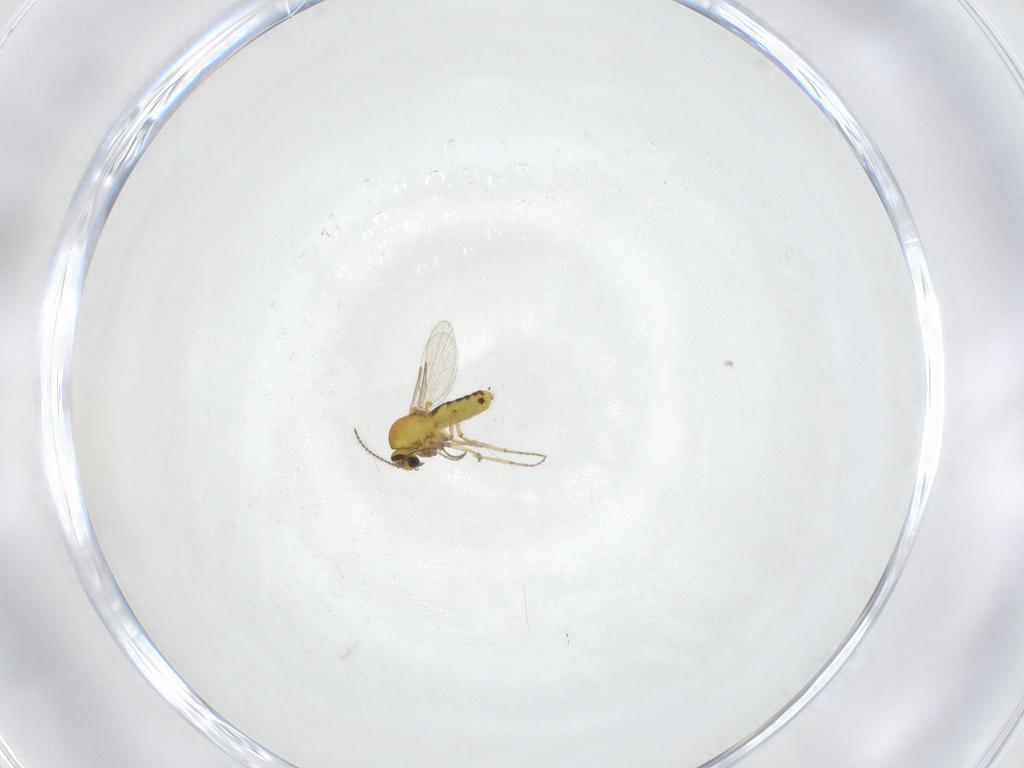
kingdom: Animalia
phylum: Arthropoda
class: Insecta
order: Diptera
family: Ceratopogonidae
